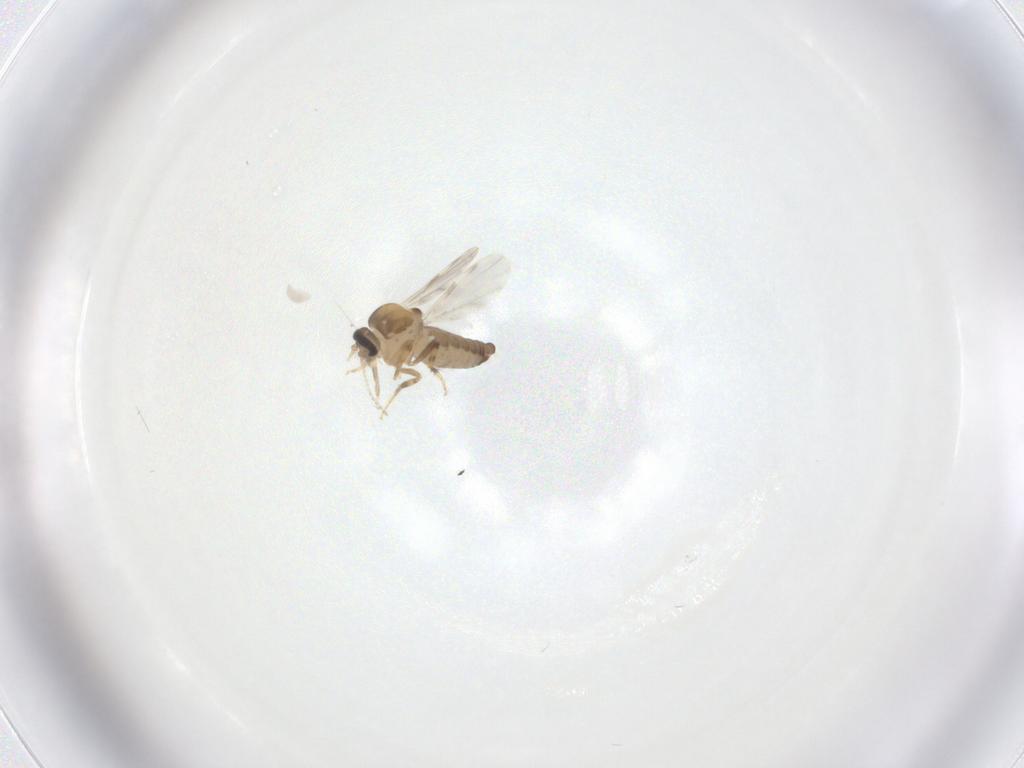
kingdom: Animalia
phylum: Arthropoda
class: Insecta
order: Diptera
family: Ceratopogonidae
